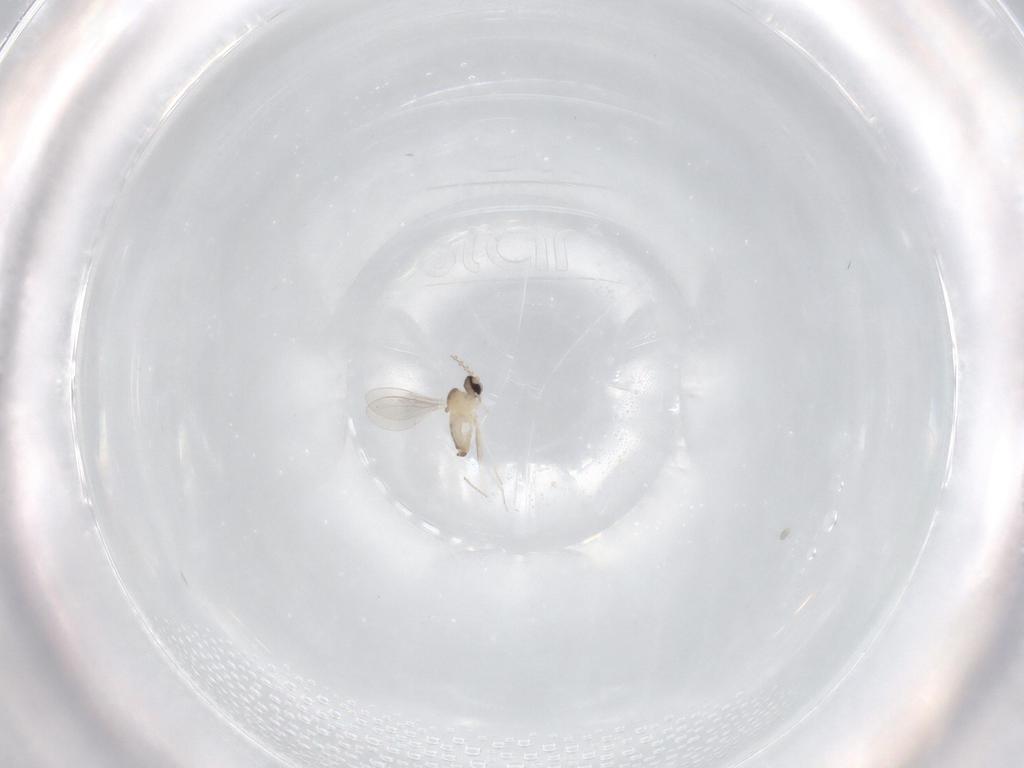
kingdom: Animalia
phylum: Arthropoda
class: Insecta
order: Diptera
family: Cecidomyiidae
